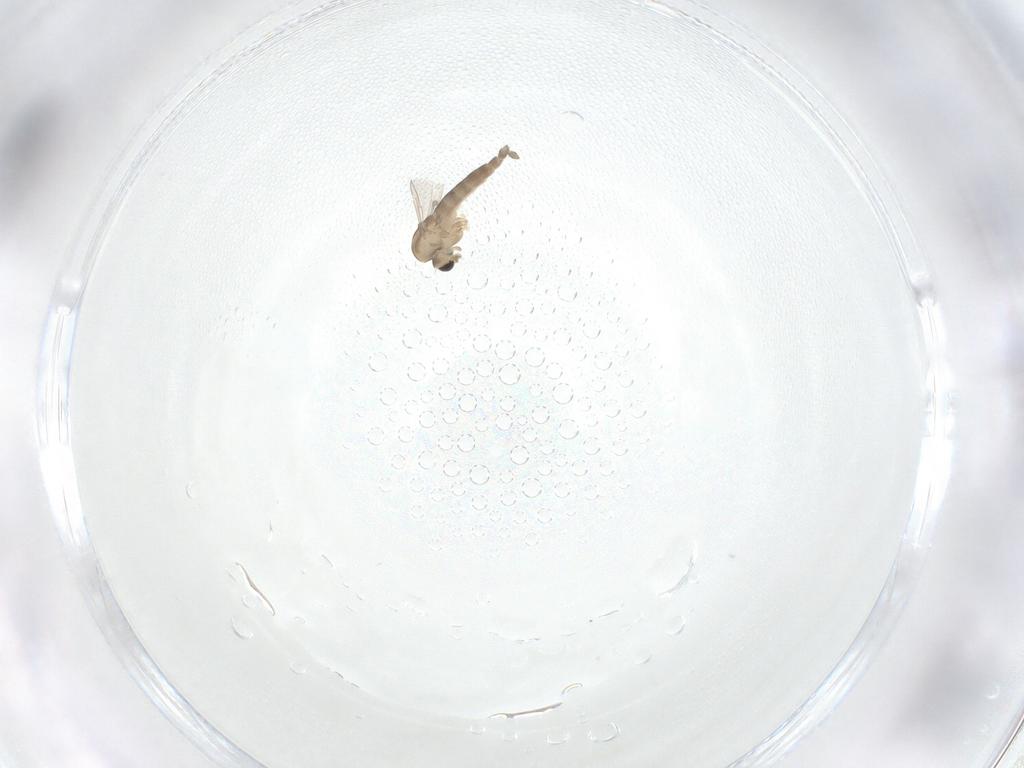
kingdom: Animalia
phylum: Arthropoda
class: Insecta
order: Diptera
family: Chironomidae
